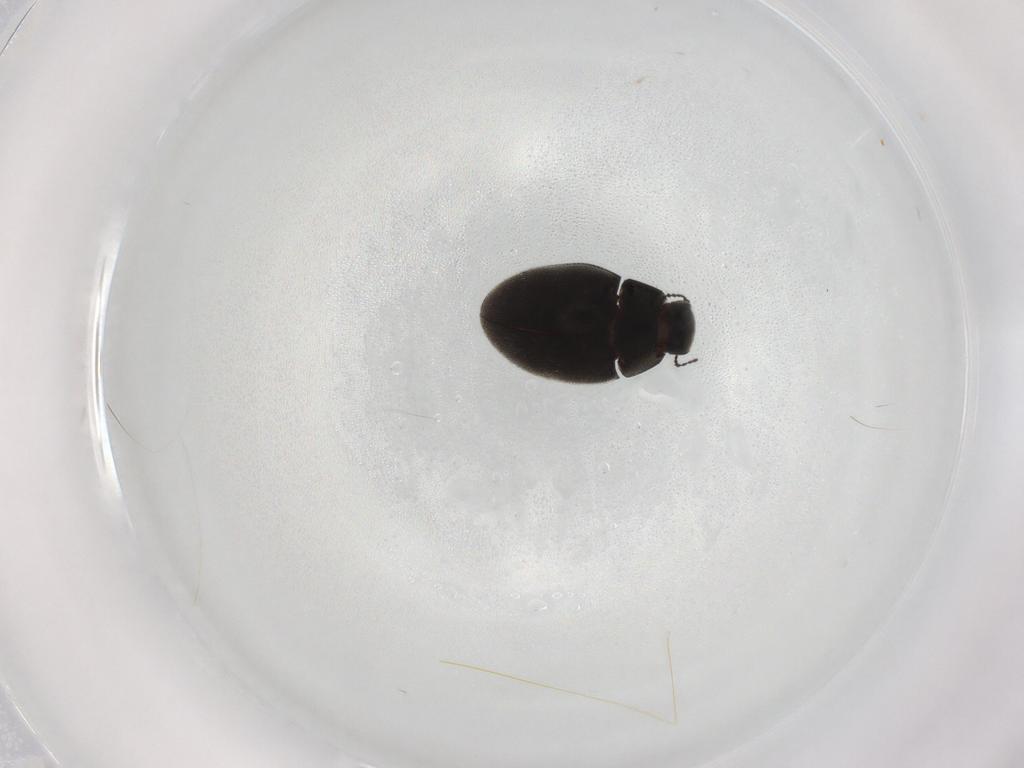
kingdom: Animalia
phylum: Arthropoda
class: Insecta
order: Coleoptera
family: Limnichidae
